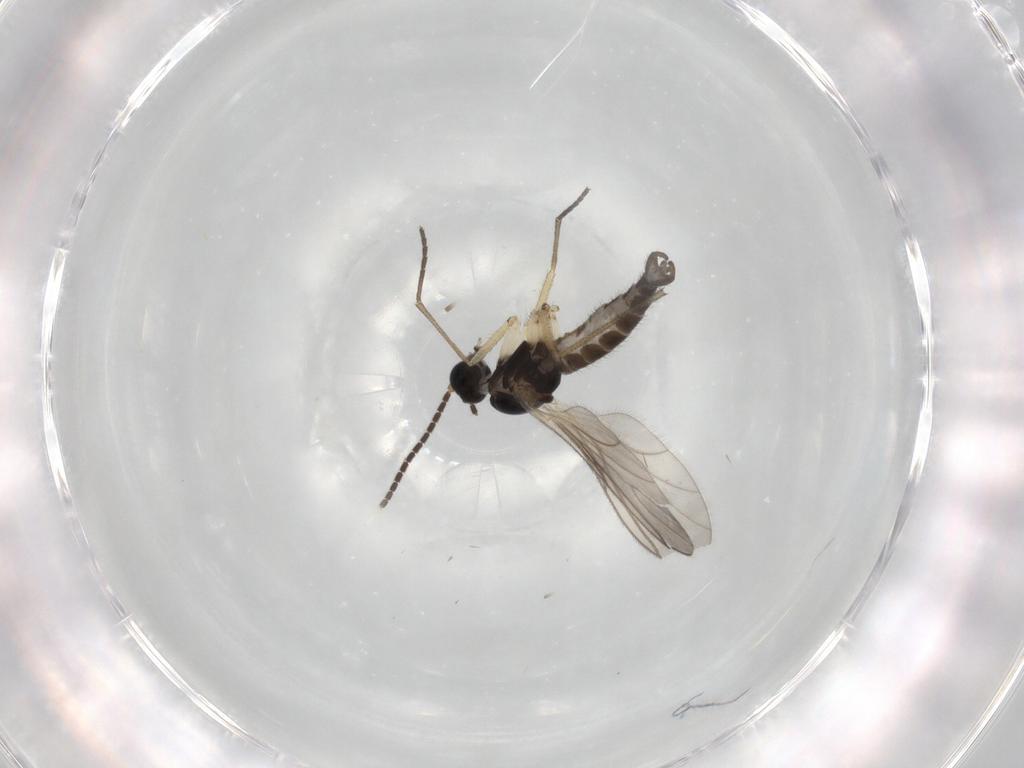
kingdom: Animalia
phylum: Arthropoda
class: Insecta
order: Diptera
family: Sciaridae
